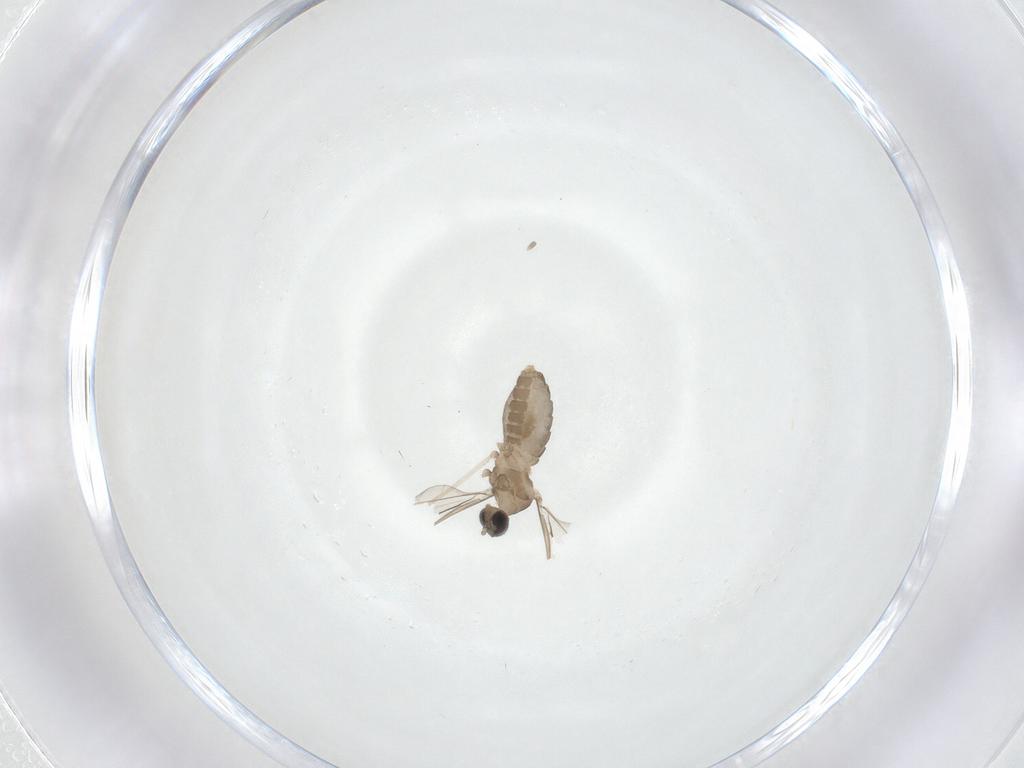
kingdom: Animalia
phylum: Arthropoda
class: Insecta
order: Diptera
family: Cecidomyiidae
